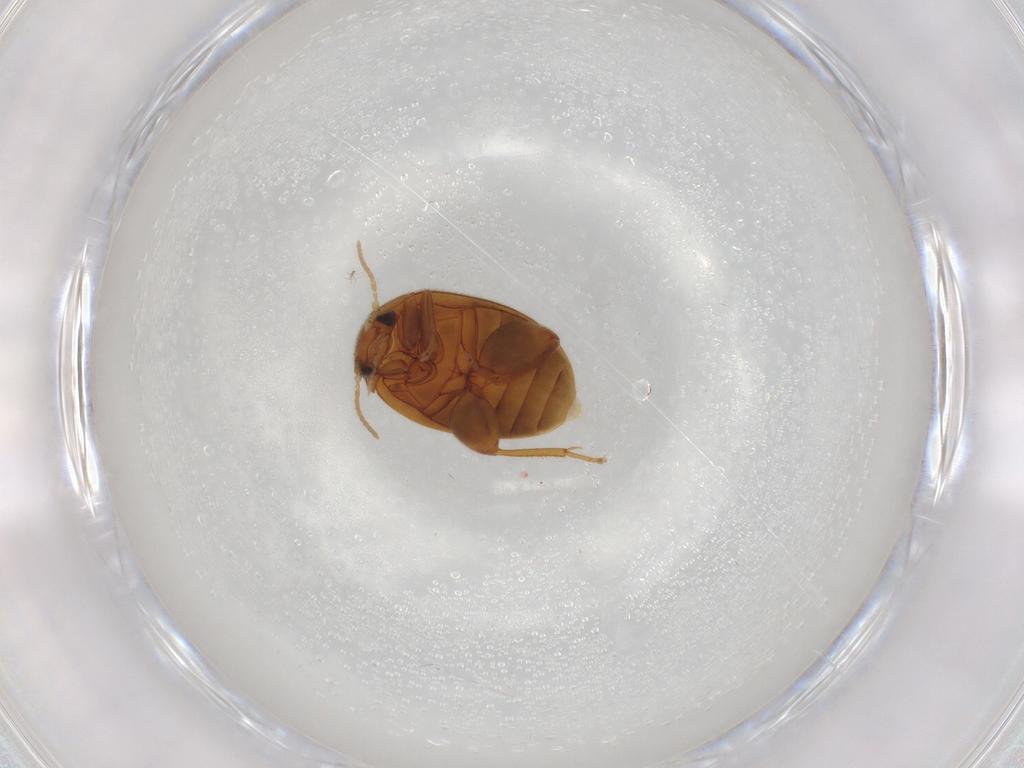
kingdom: Animalia
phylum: Arthropoda
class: Insecta
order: Coleoptera
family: Scirtidae
